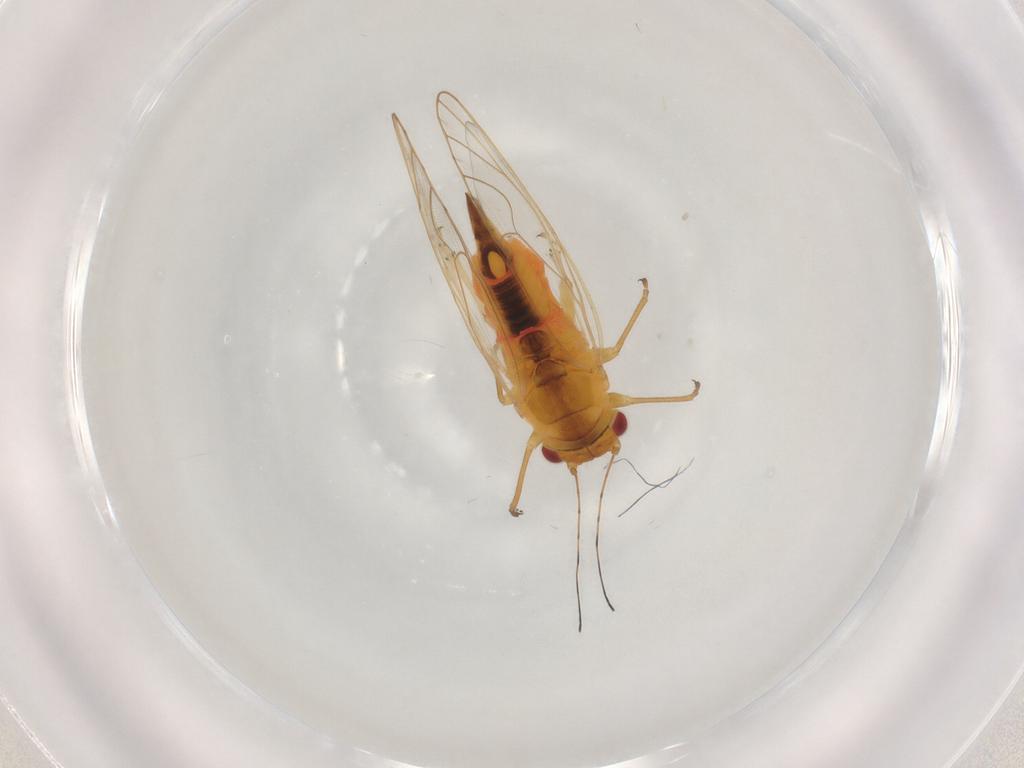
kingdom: Animalia
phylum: Arthropoda
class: Insecta
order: Hemiptera
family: Psyllidae
